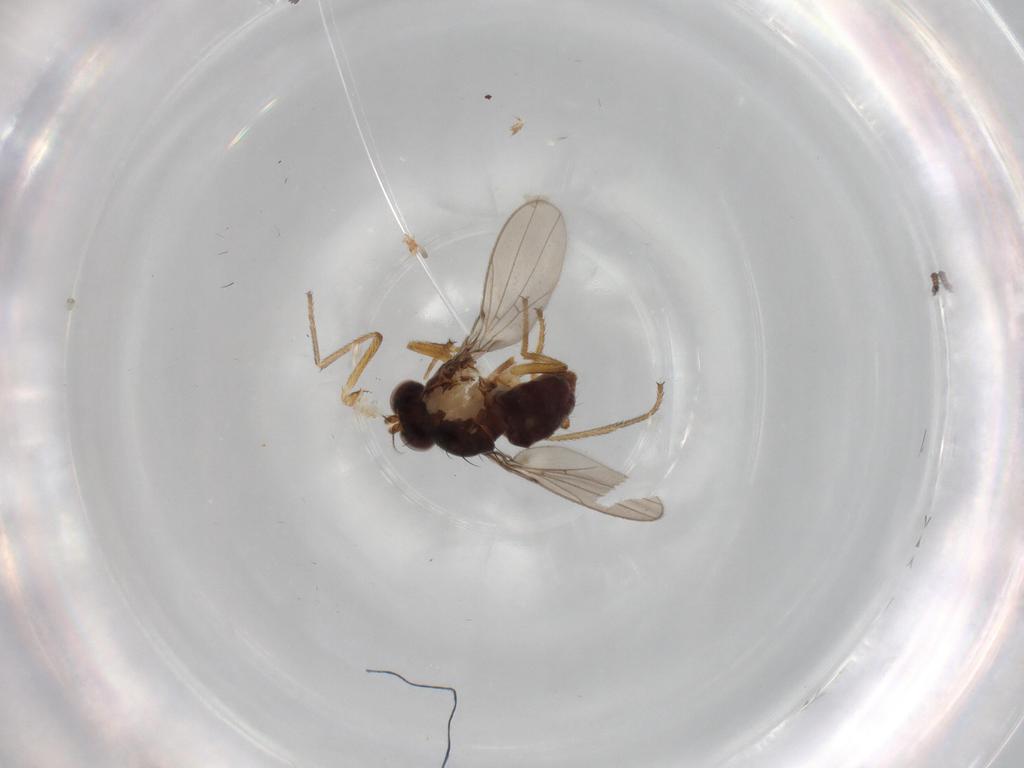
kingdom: Animalia
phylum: Arthropoda
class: Insecta
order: Diptera
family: Ephydridae
